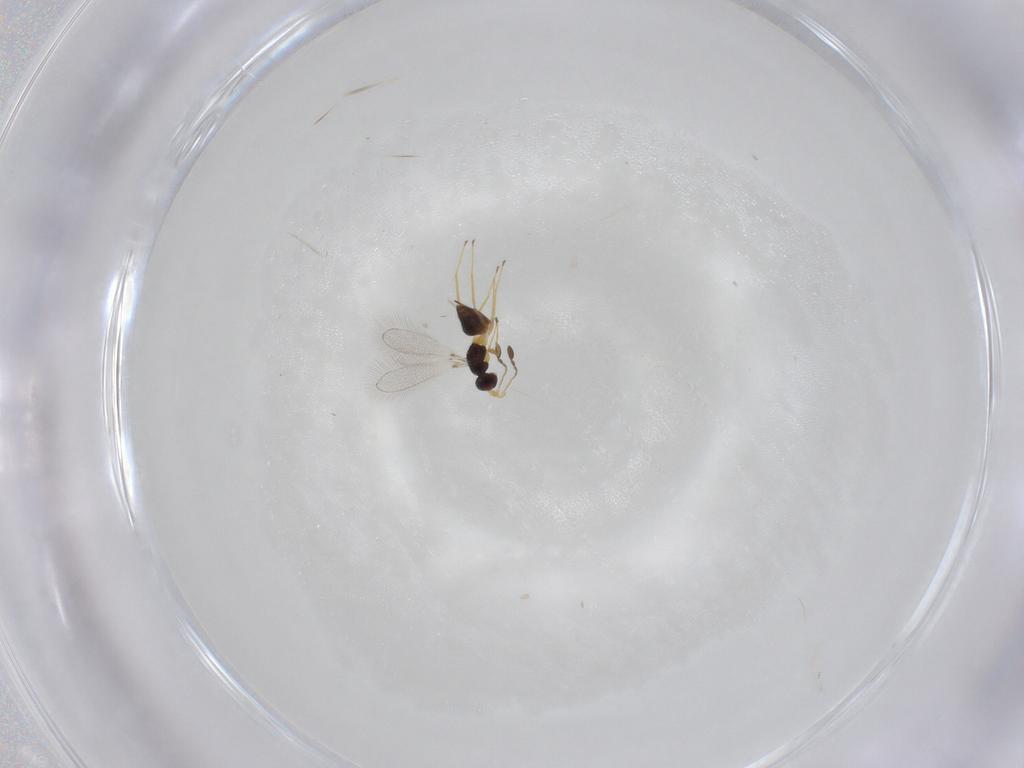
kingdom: Animalia
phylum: Arthropoda
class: Insecta
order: Hymenoptera
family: Mymaridae
